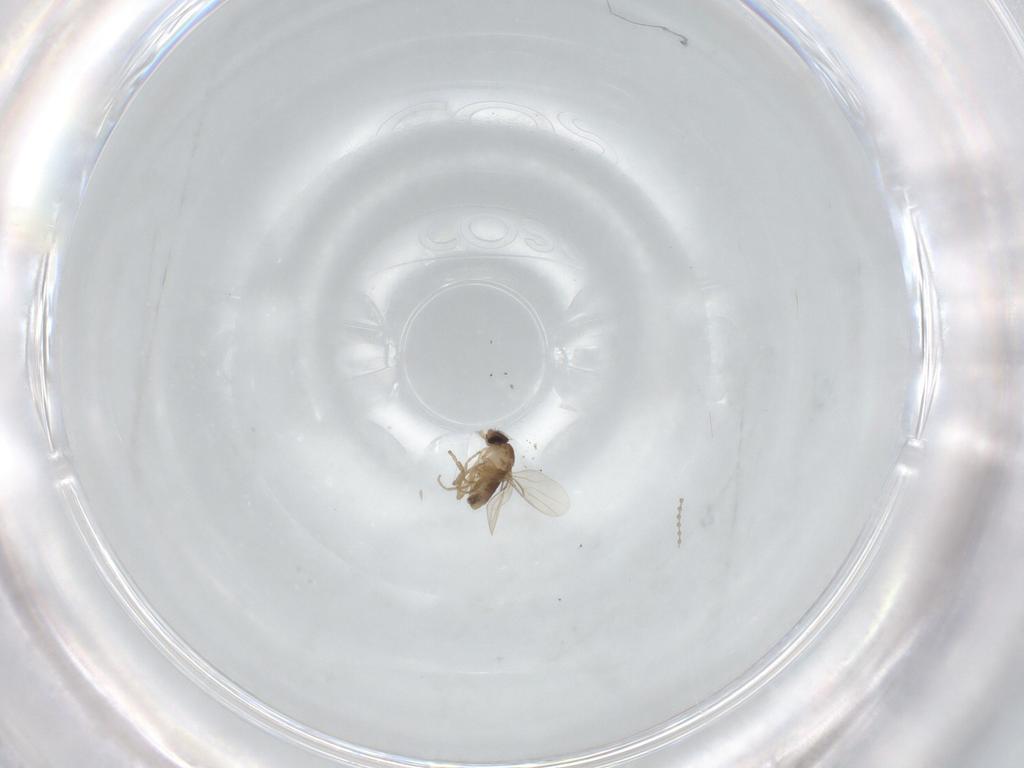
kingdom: Animalia
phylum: Arthropoda
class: Insecta
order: Diptera
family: Phoridae
